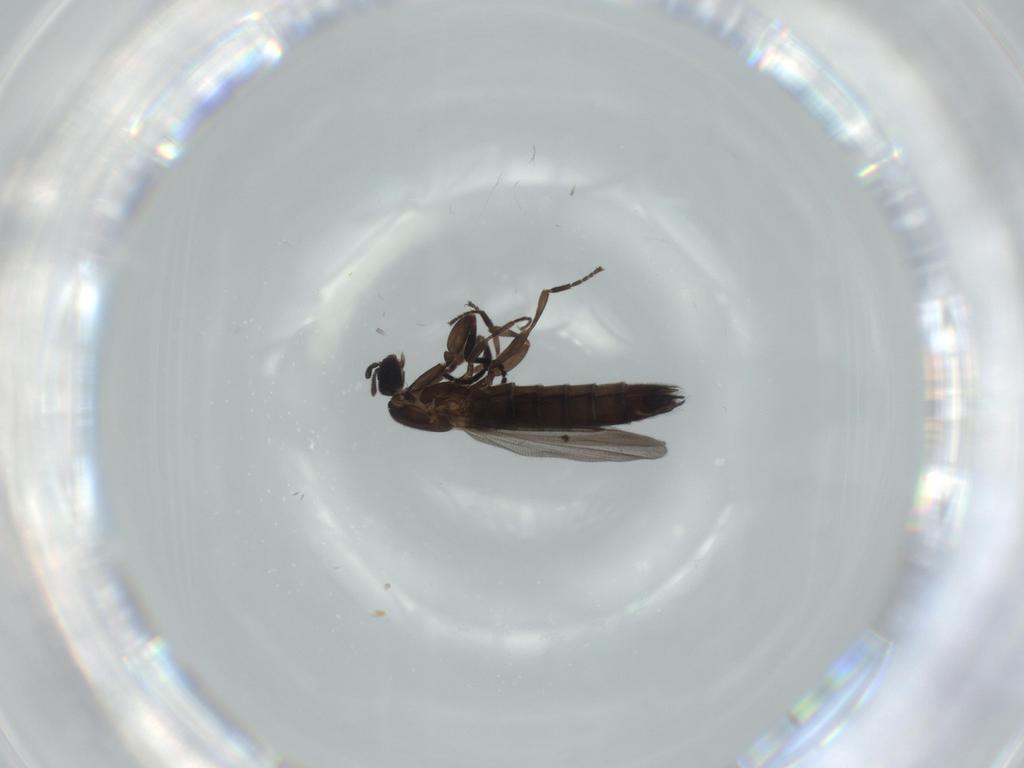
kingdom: Animalia
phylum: Arthropoda
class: Insecta
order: Diptera
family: Scatopsidae
